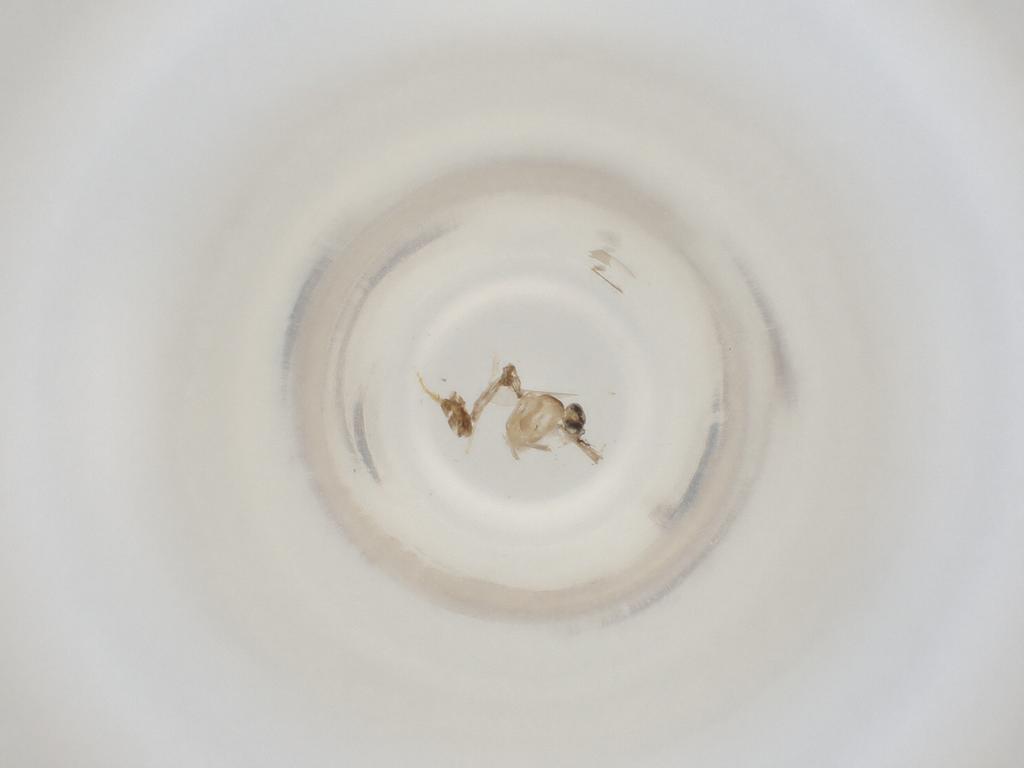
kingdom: Animalia
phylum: Arthropoda
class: Insecta
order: Diptera
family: Cecidomyiidae
